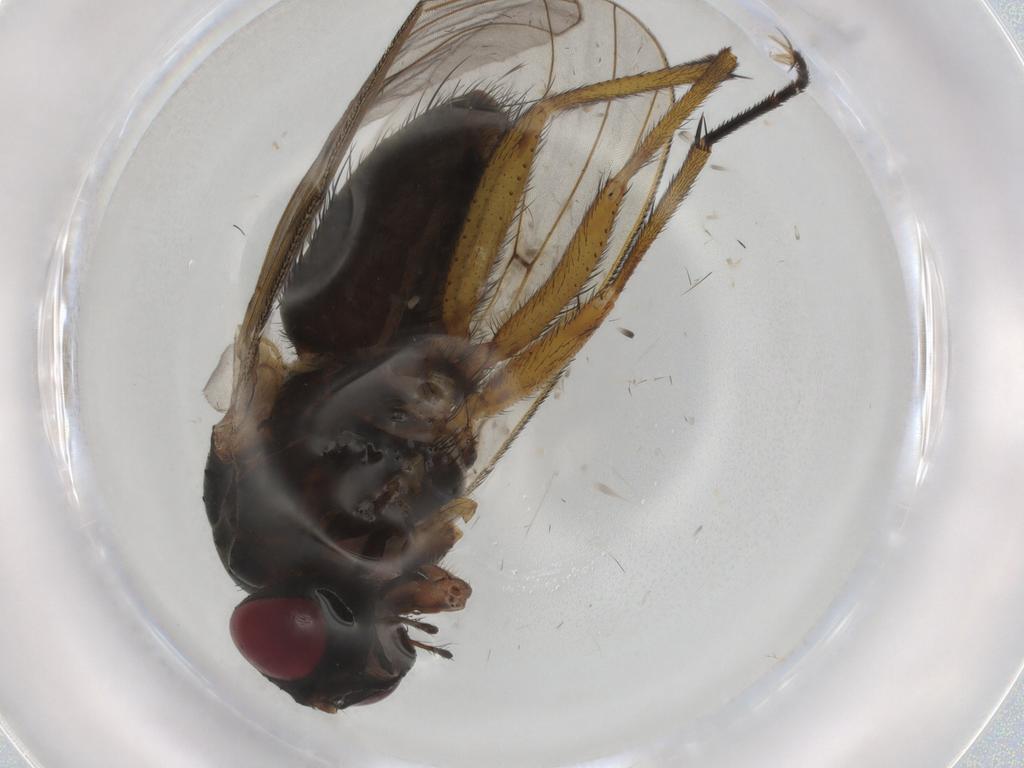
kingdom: Animalia
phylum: Arthropoda
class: Insecta
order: Diptera
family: Muscidae
